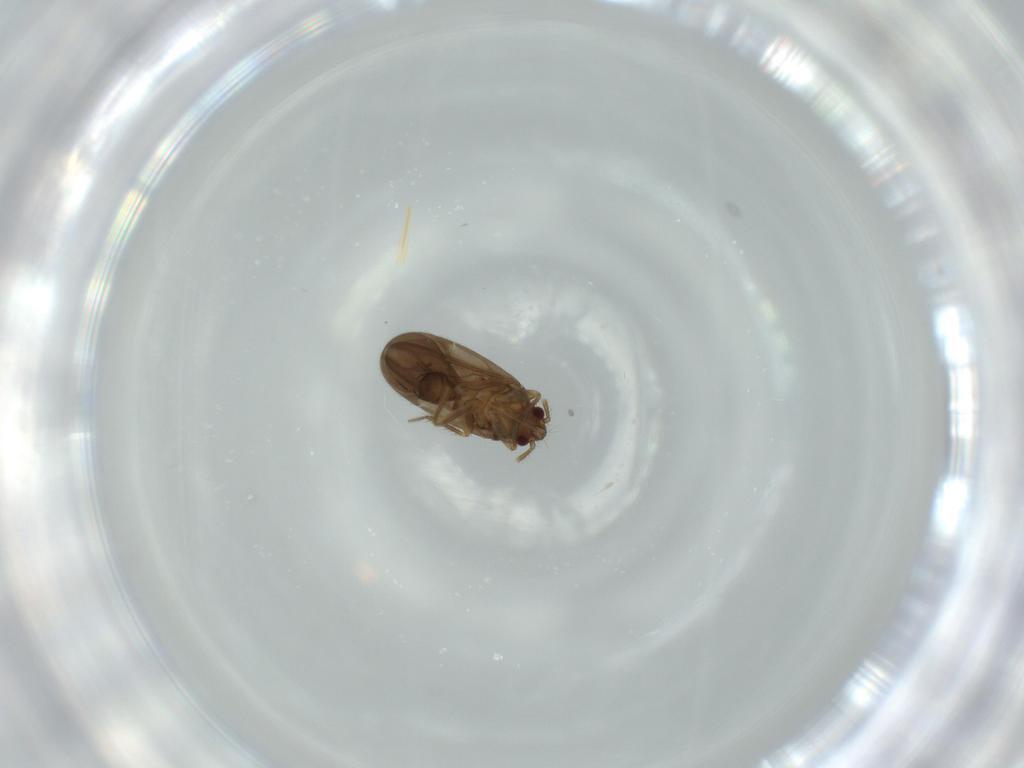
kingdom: Animalia
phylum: Arthropoda
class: Insecta
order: Hemiptera
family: Ceratocombidae
